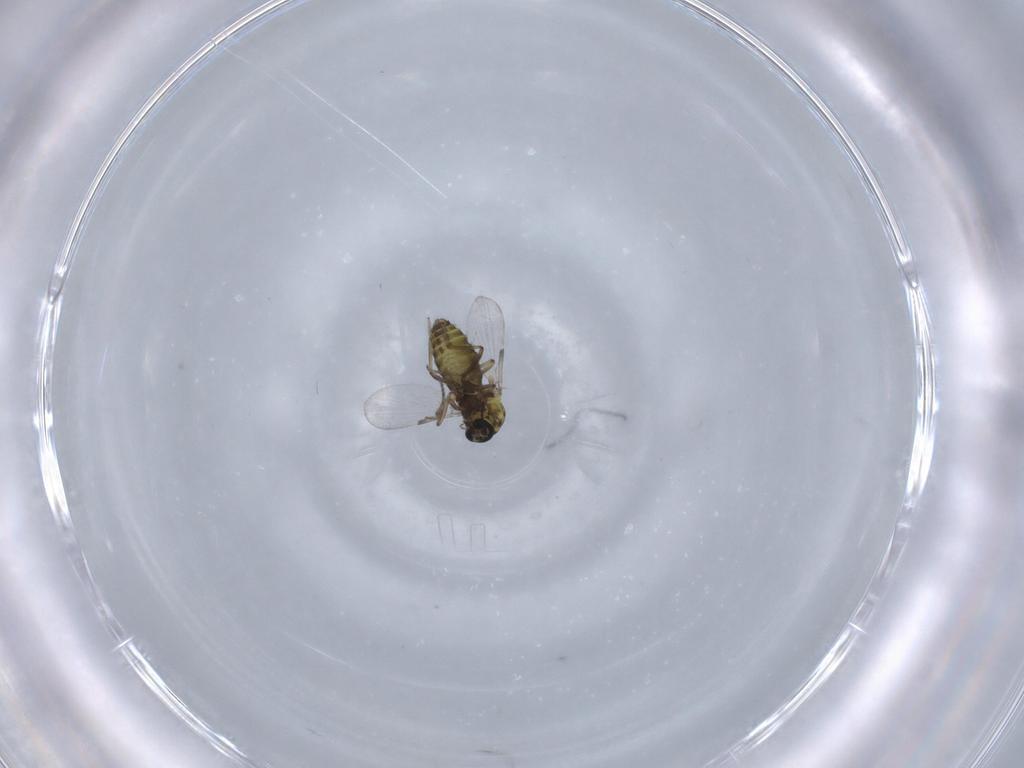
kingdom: Animalia
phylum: Arthropoda
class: Insecta
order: Diptera
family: Ceratopogonidae
